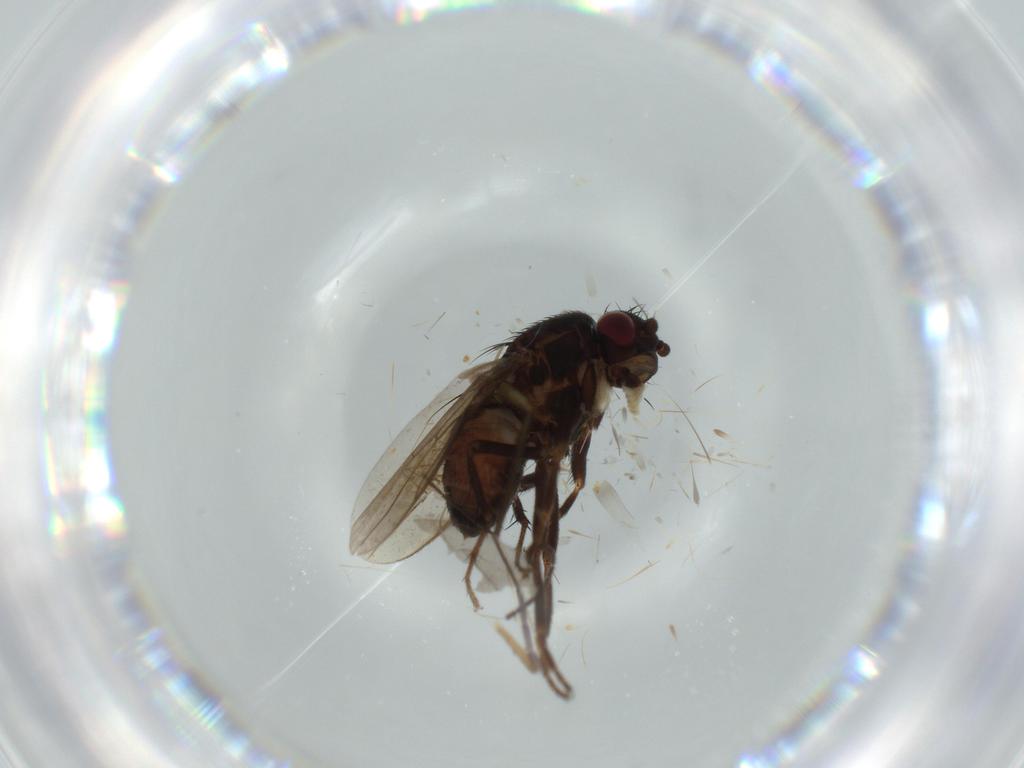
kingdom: Animalia
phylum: Arthropoda
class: Insecta
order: Diptera
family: Ditomyiidae
